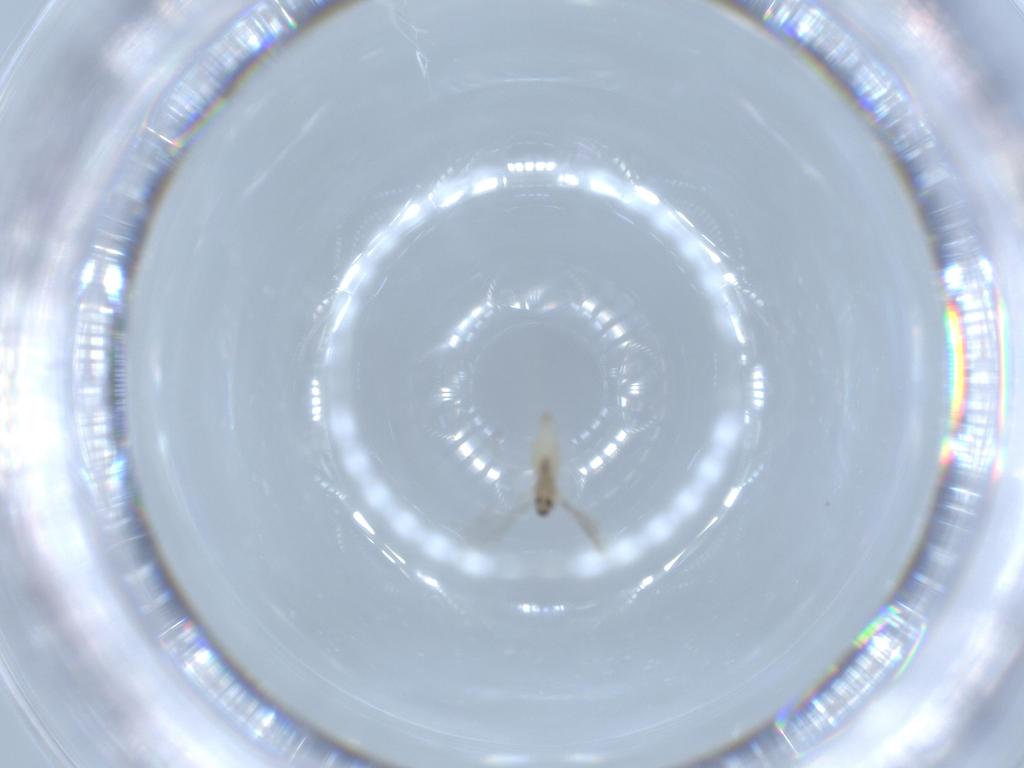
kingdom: Animalia
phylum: Arthropoda
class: Insecta
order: Diptera
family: Cecidomyiidae
